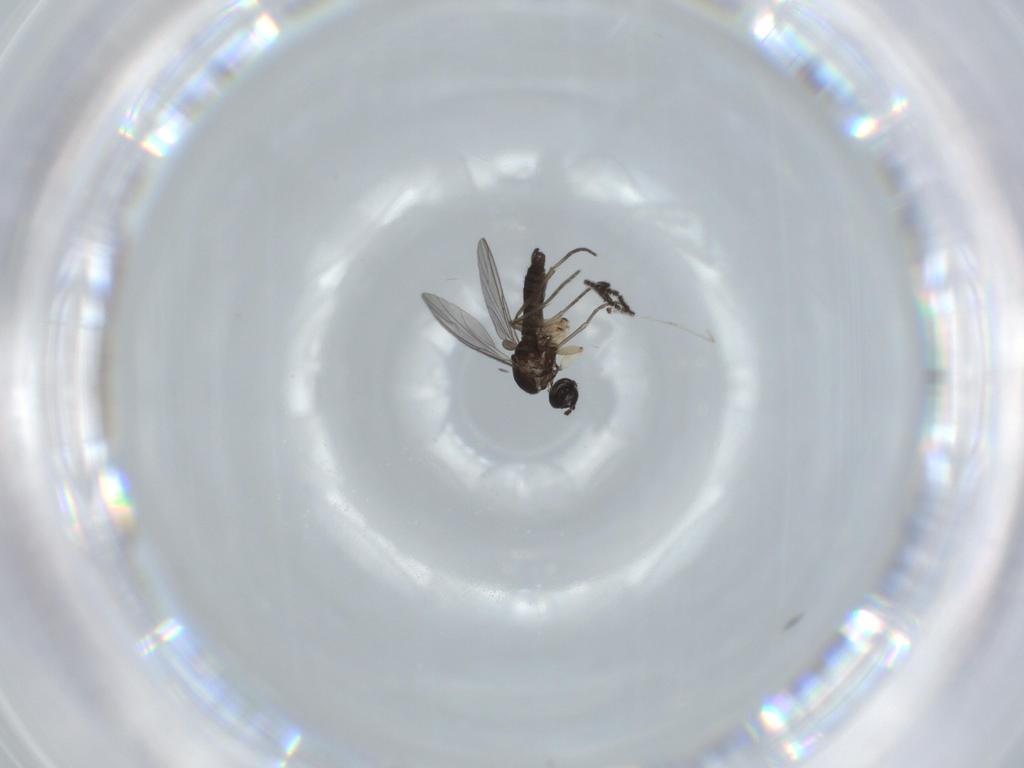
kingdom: Animalia
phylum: Arthropoda
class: Insecta
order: Diptera
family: Sciaridae
